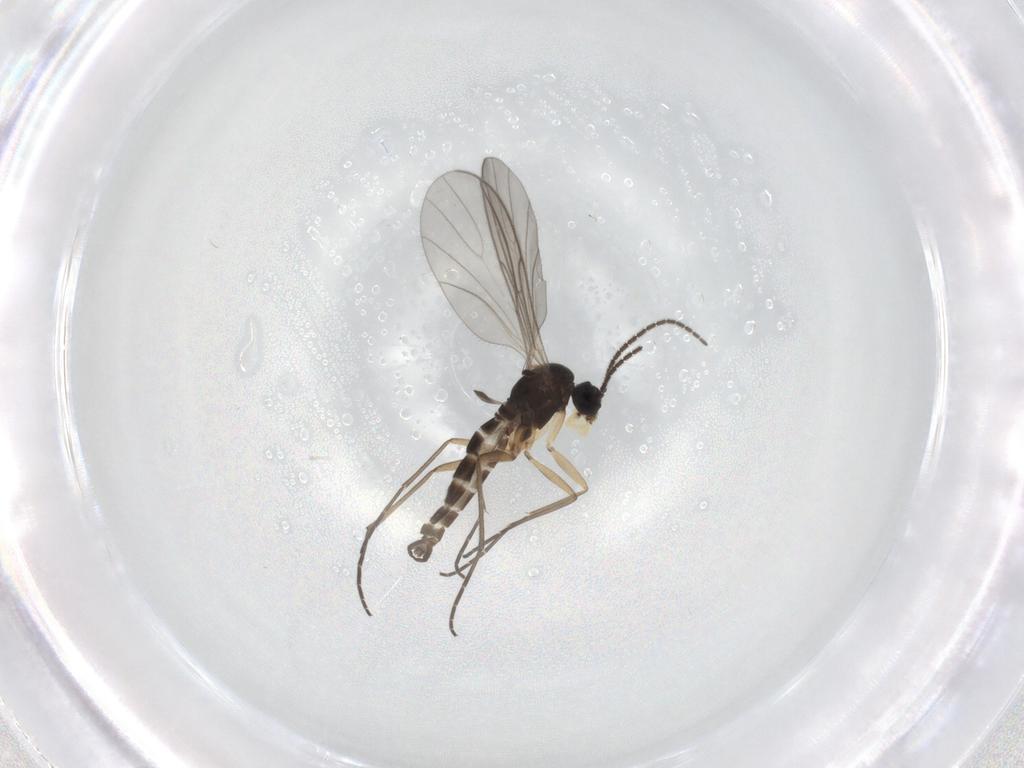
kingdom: Animalia
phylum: Arthropoda
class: Insecta
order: Diptera
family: Sciaridae
